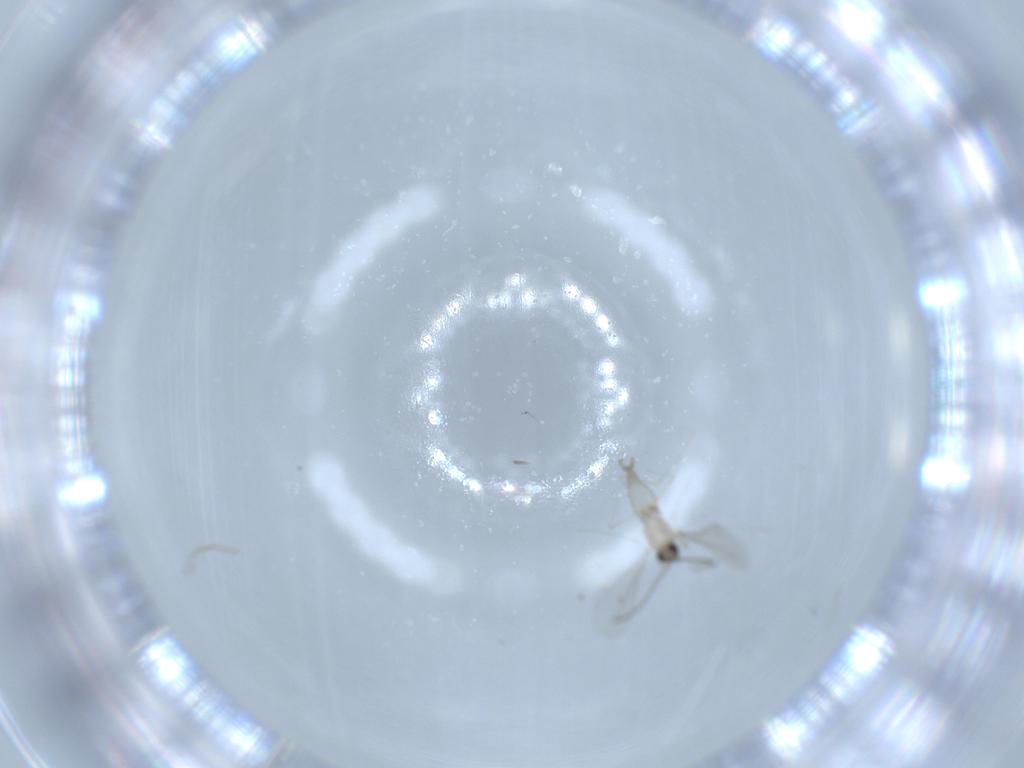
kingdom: Animalia
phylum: Arthropoda
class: Insecta
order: Diptera
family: Cecidomyiidae
